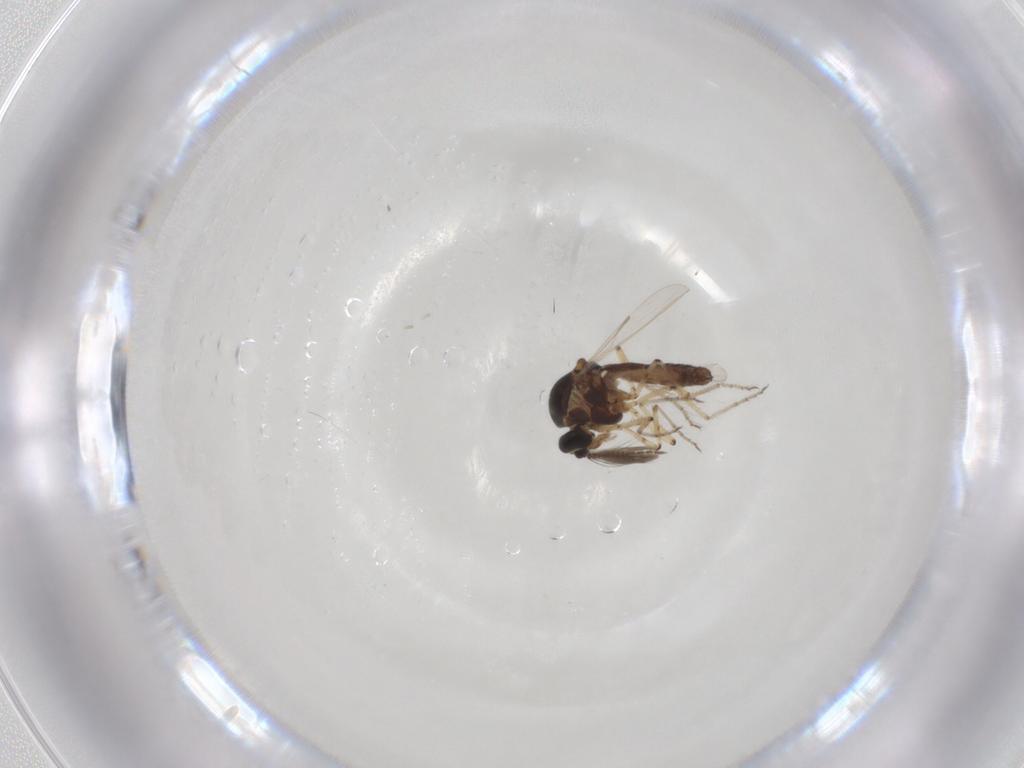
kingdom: Animalia
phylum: Arthropoda
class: Insecta
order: Diptera
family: Ceratopogonidae
